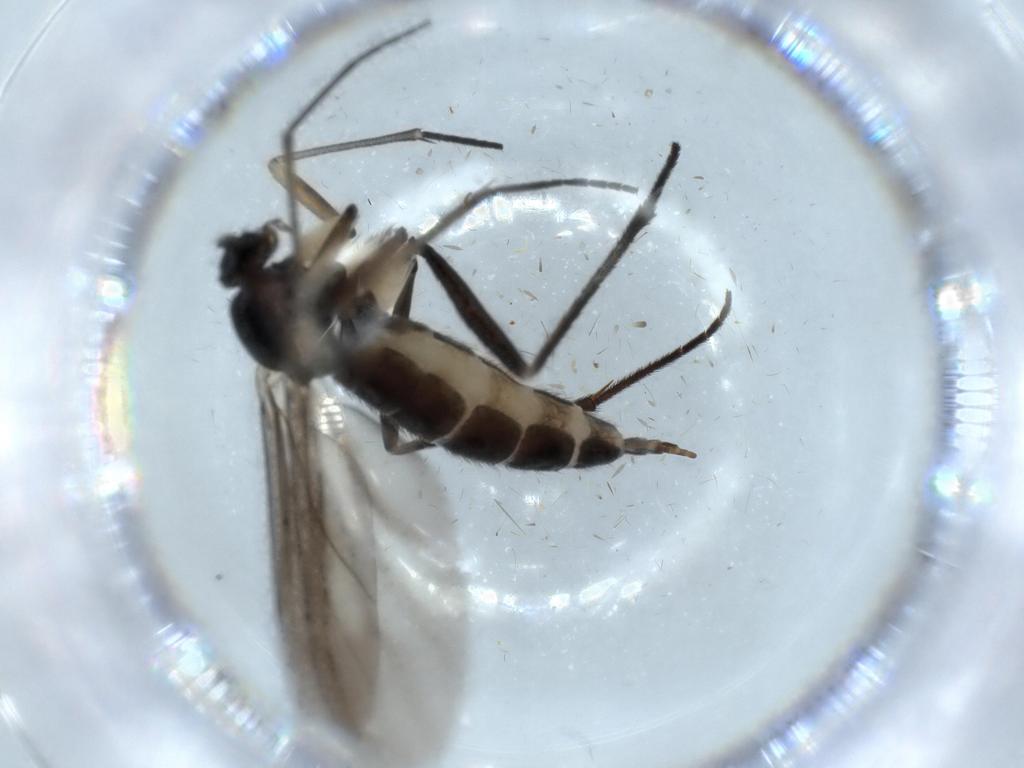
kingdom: Animalia
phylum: Arthropoda
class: Insecta
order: Diptera
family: Sciaridae
